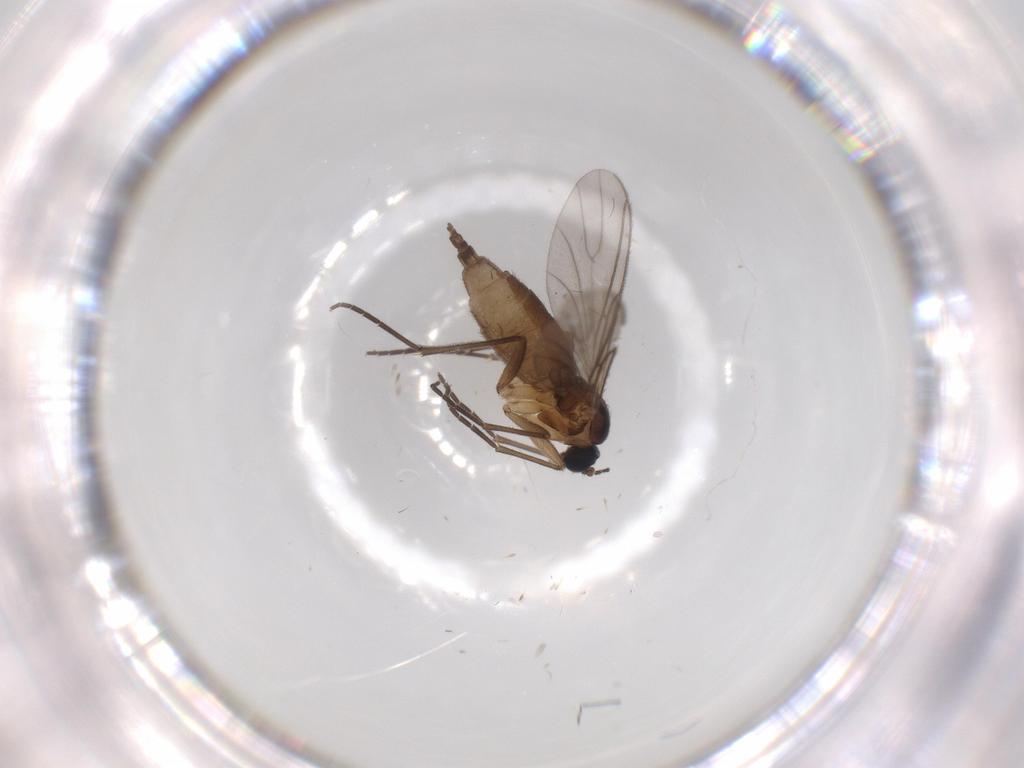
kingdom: Animalia
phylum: Arthropoda
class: Insecta
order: Diptera
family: Sciaridae
